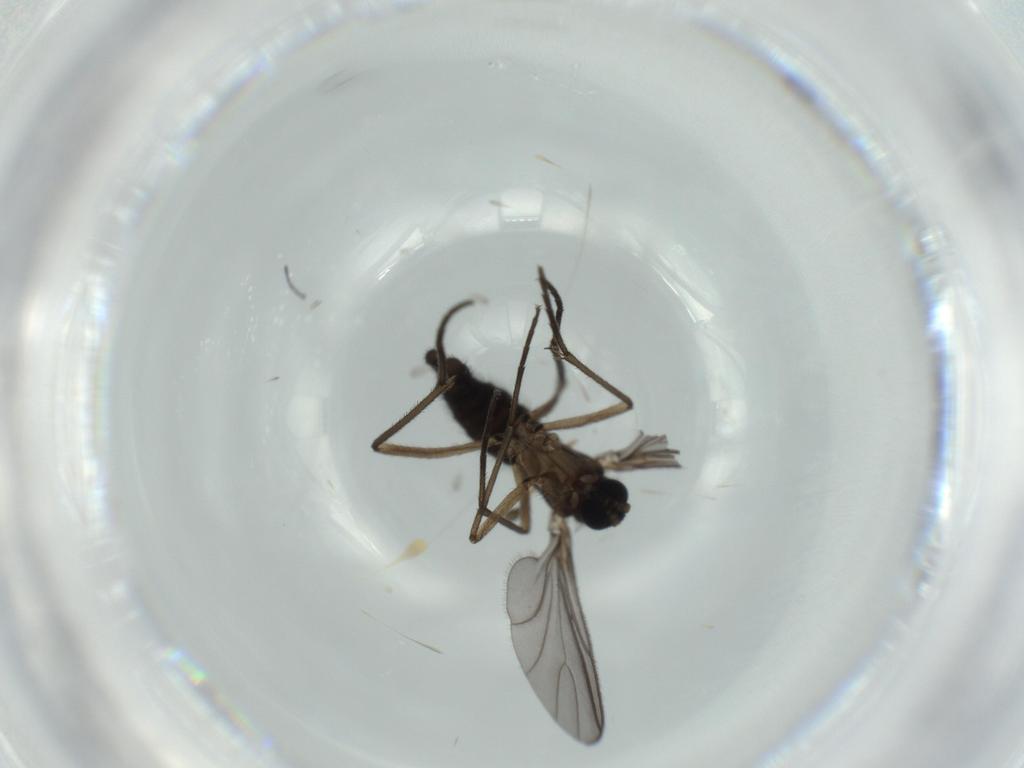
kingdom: Animalia
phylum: Arthropoda
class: Insecta
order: Diptera
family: Sciaridae
